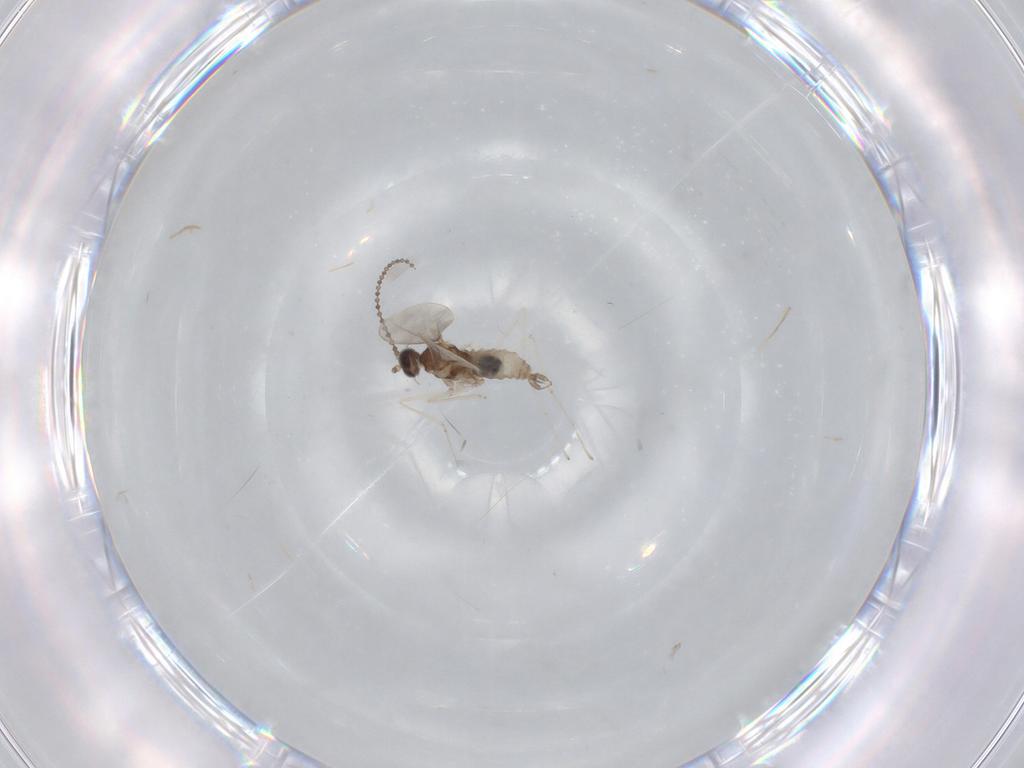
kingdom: Animalia
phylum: Arthropoda
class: Insecta
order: Diptera
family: Cecidomyiidae
